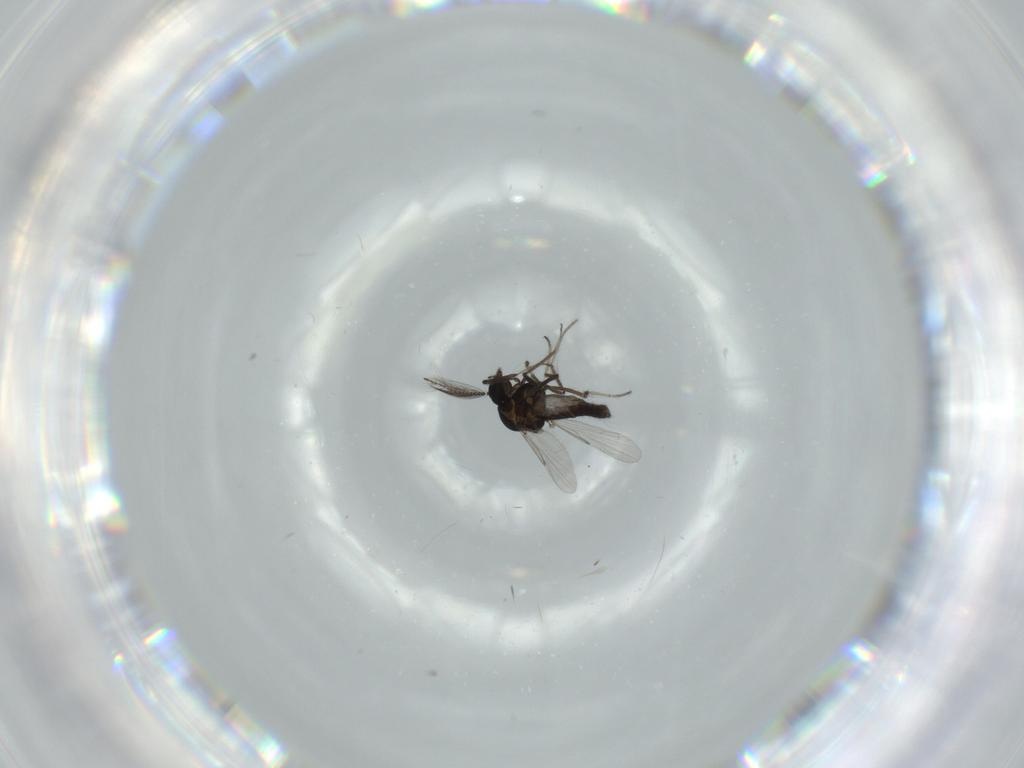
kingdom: Animalia
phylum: Arthropoda
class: Insecta
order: Diptera
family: Ceratopogonidae
